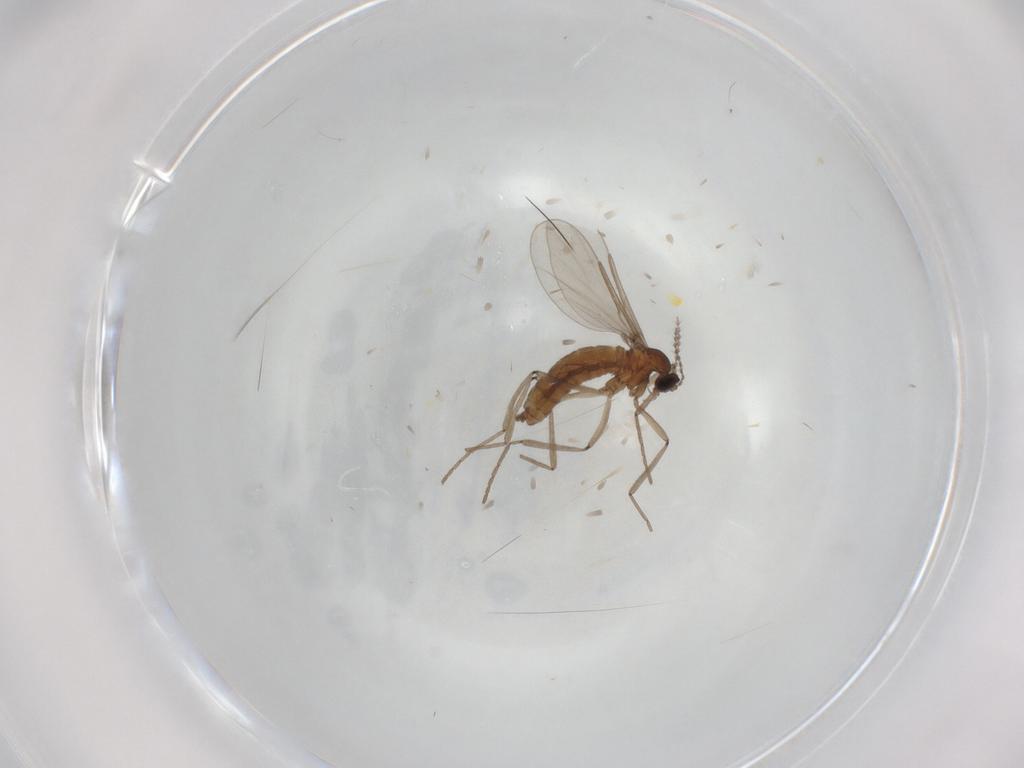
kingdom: Animalia
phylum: Arthropoda
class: Insecta
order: Diptera
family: Cecidomyiidae
